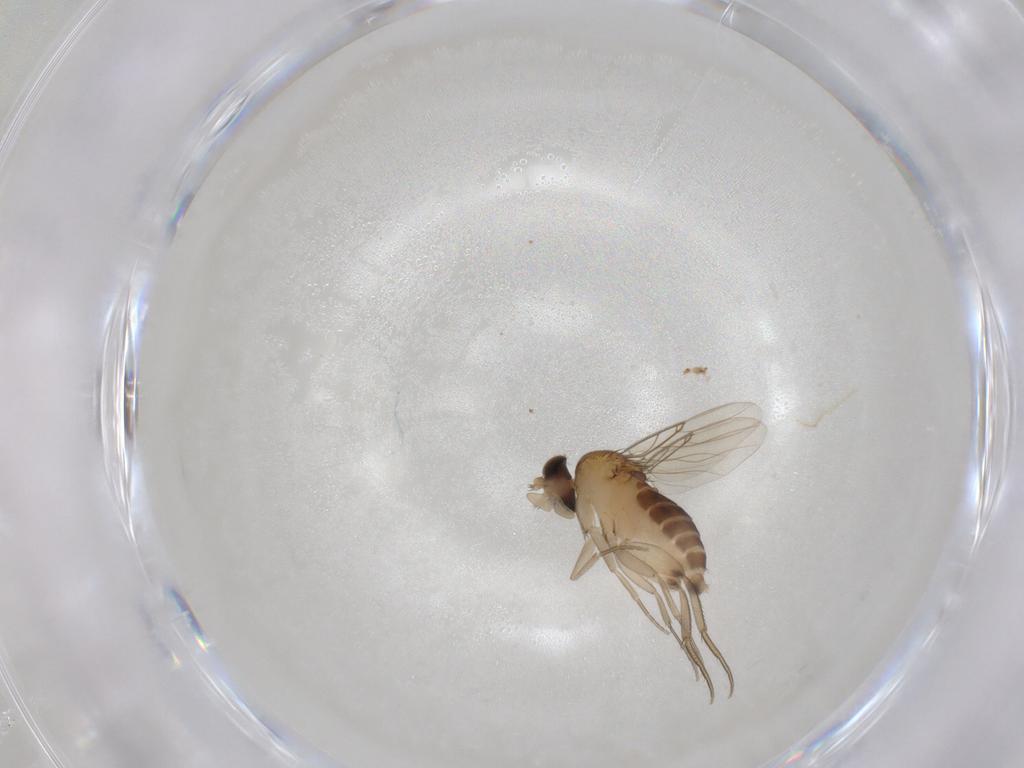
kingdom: Animalia
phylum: Arthropoda
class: Insecta
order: Diptera
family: Phoridae
